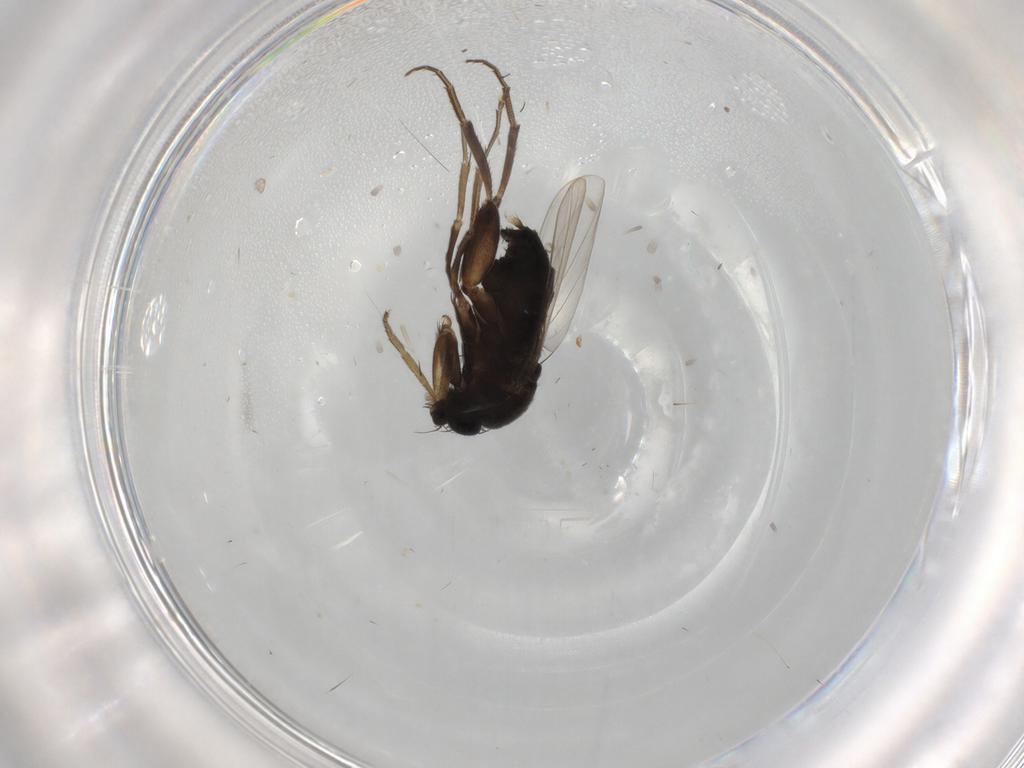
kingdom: Animalia
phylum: Arthropoda
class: Insecta
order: Diptera
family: Phoridae
